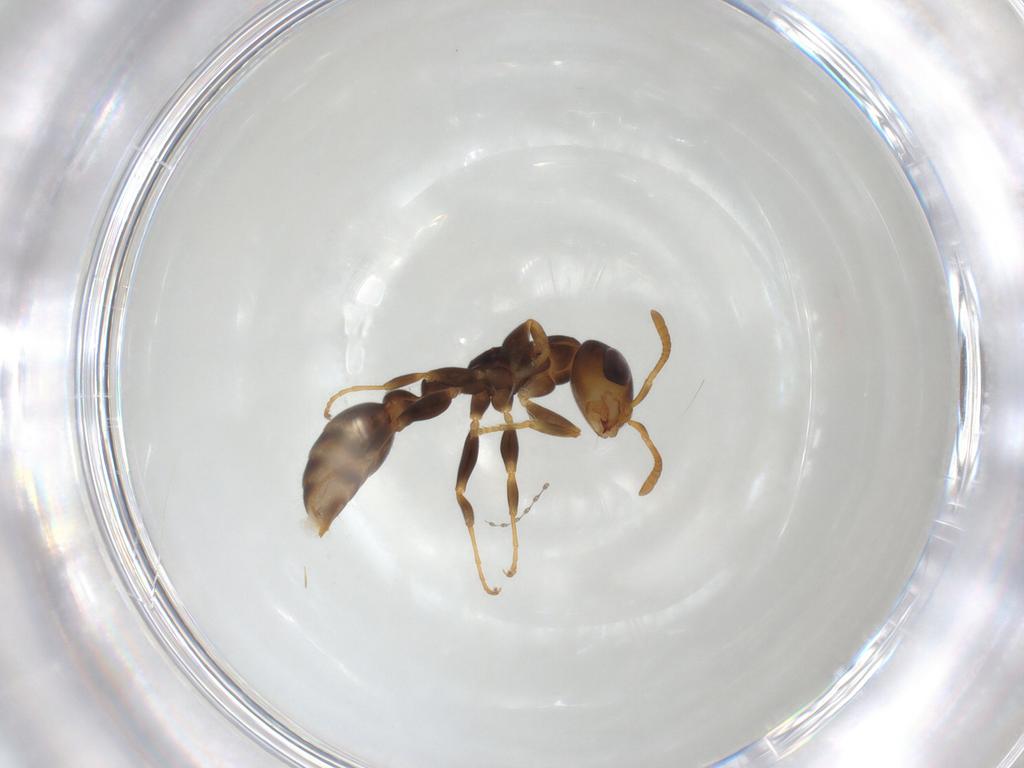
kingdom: Animalia
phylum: Arthropoda
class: Insecta
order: Hymenoptera
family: Formicidae
